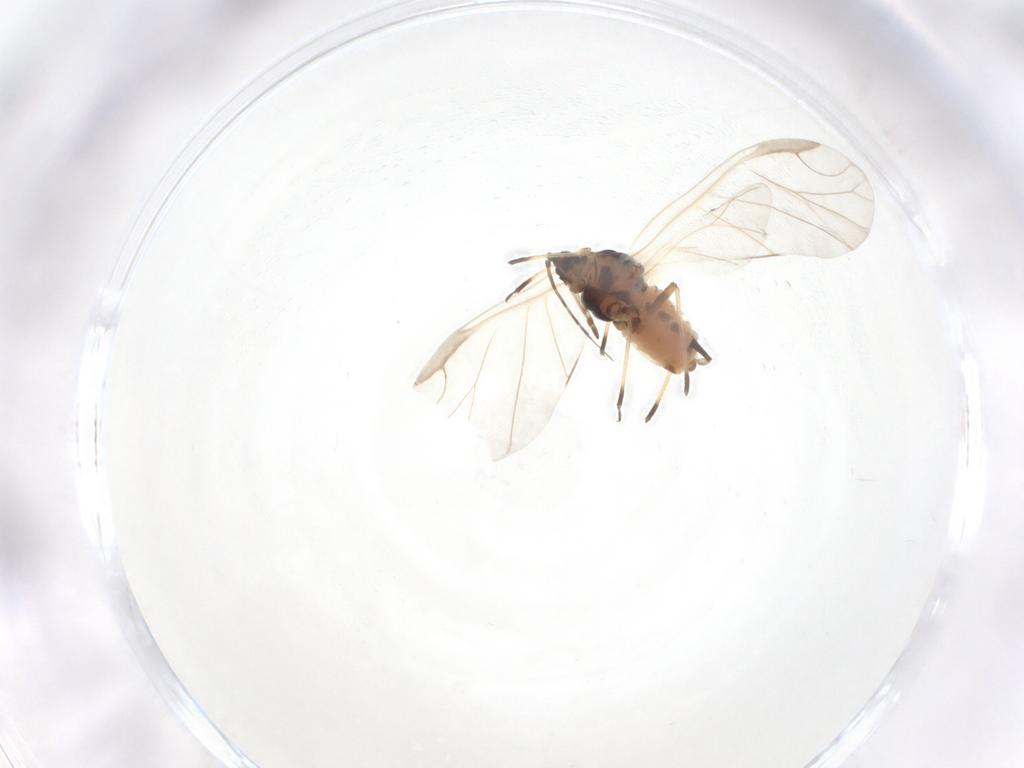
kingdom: Animalia
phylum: Arthropoda
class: Insecta
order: Hemiptera
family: Aphididae
